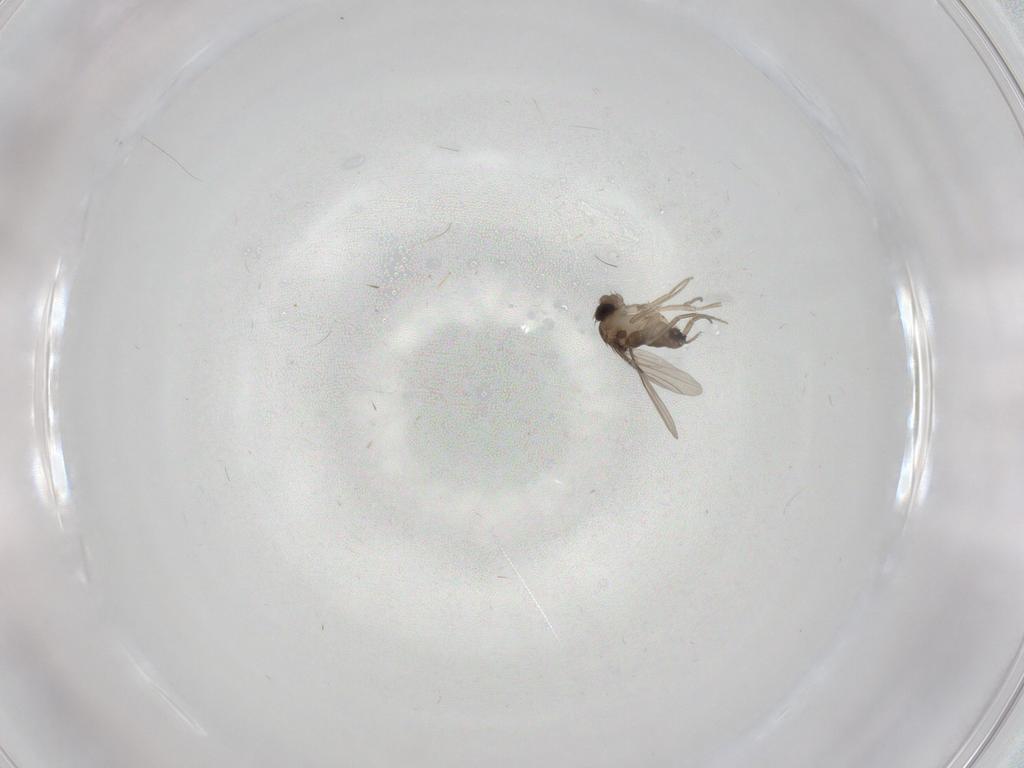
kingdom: Animalia
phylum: Arthropoda
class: Insecta
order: Diptera
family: Phoridae
